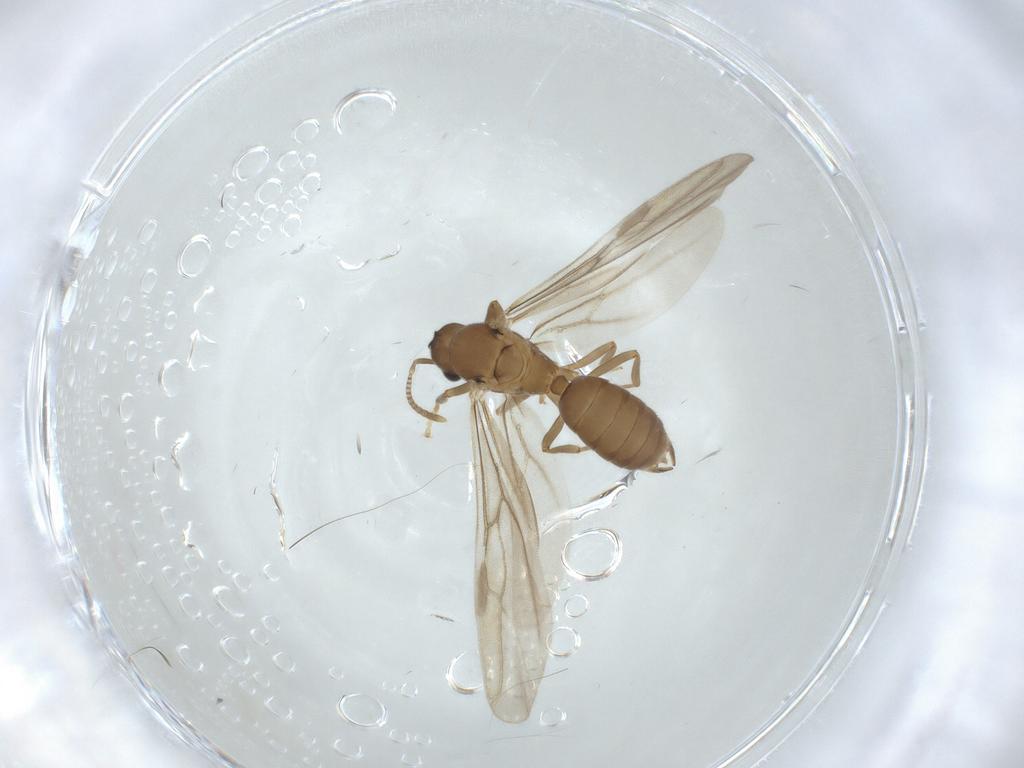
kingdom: Animalia
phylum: Arthropoda
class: Insecta
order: Hymenoptera
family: Formicidae
